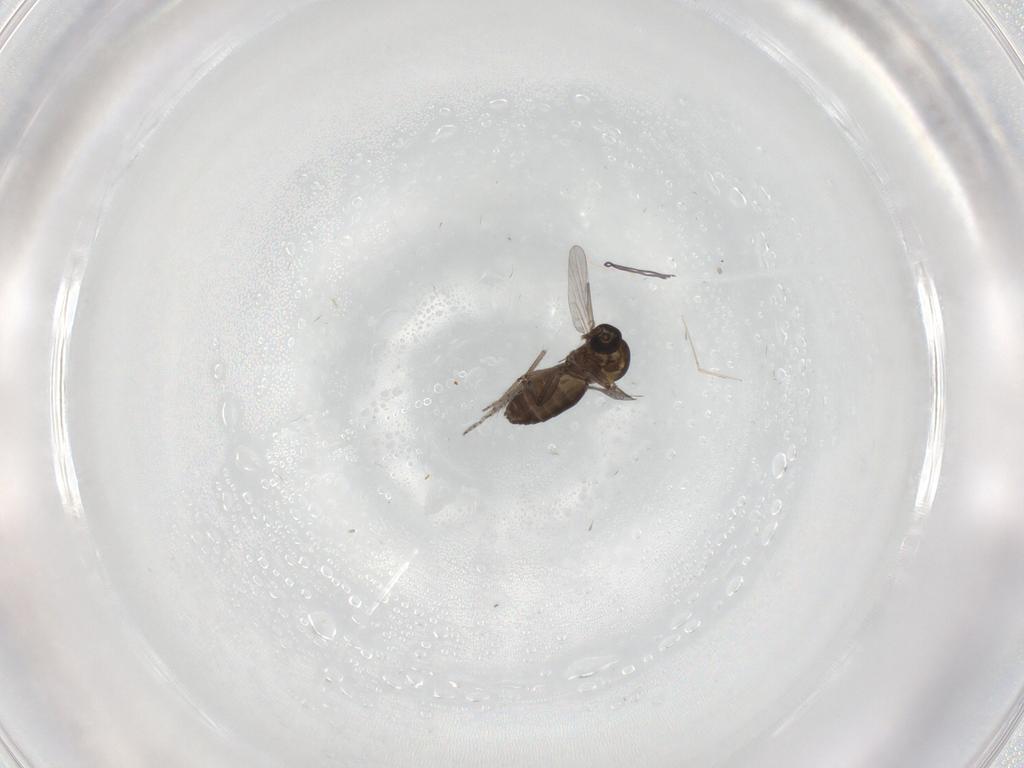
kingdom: Animalia
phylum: Arthropoda
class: Insecta
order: Diptera
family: Ceratopogonidae
